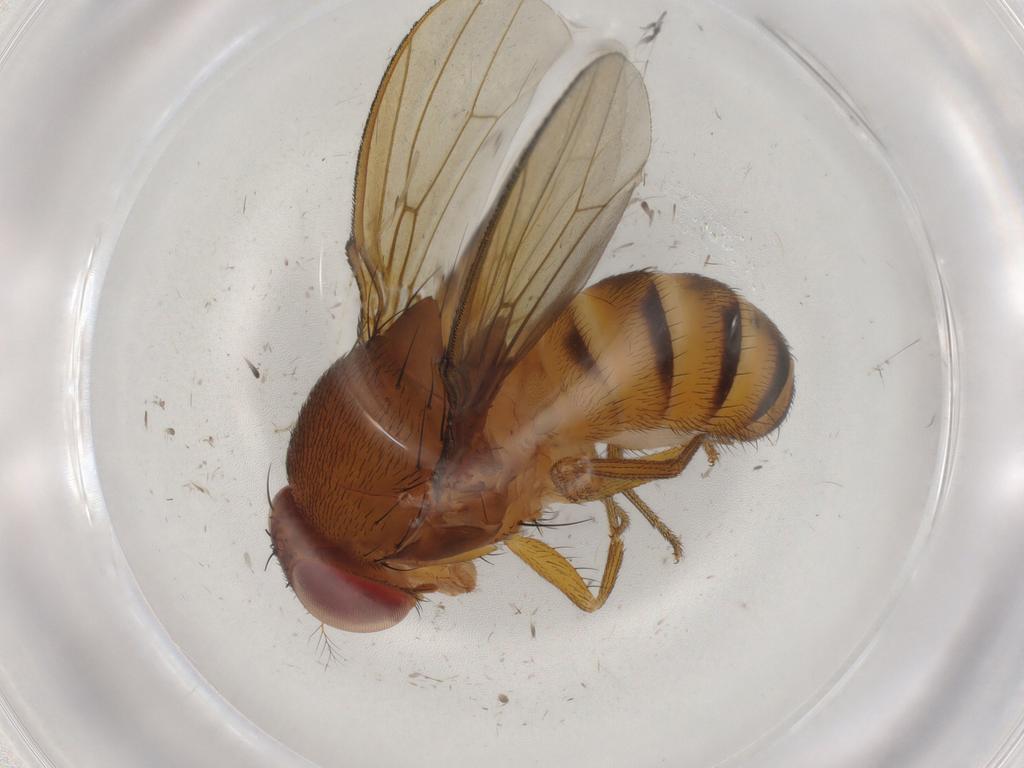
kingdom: Animalia
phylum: Arthropoda
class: Insecta
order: Diptera
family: Drosophilidae
